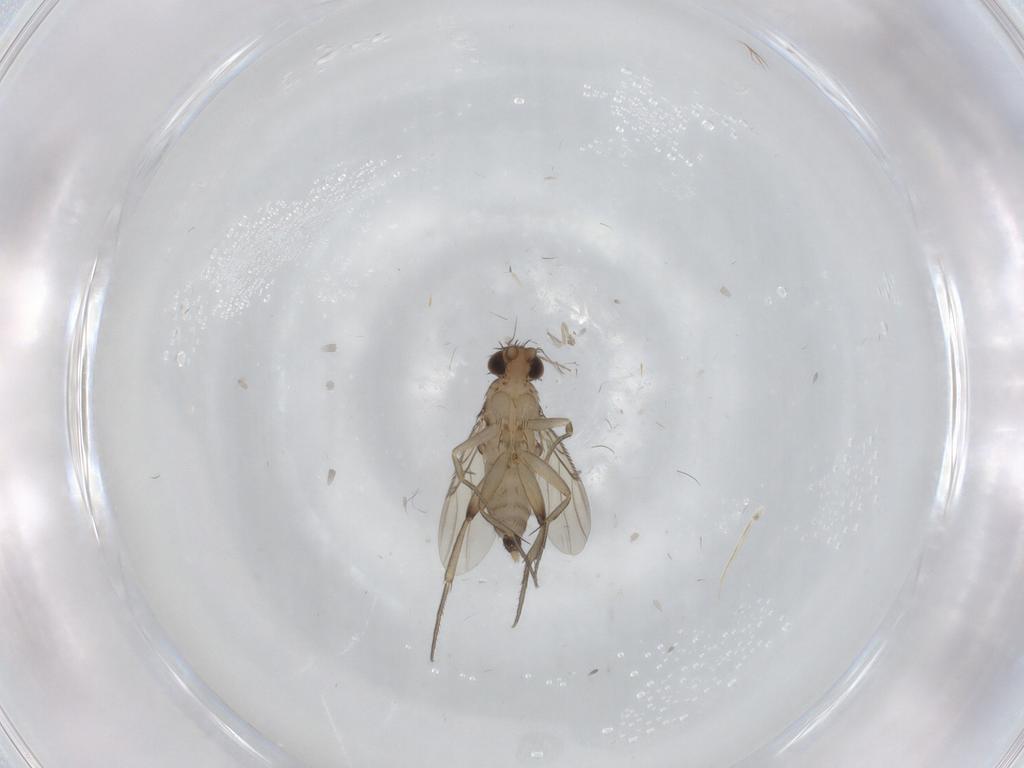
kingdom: Animalia
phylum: Arthropoda
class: Insecta
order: Diptera
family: Phoridae
